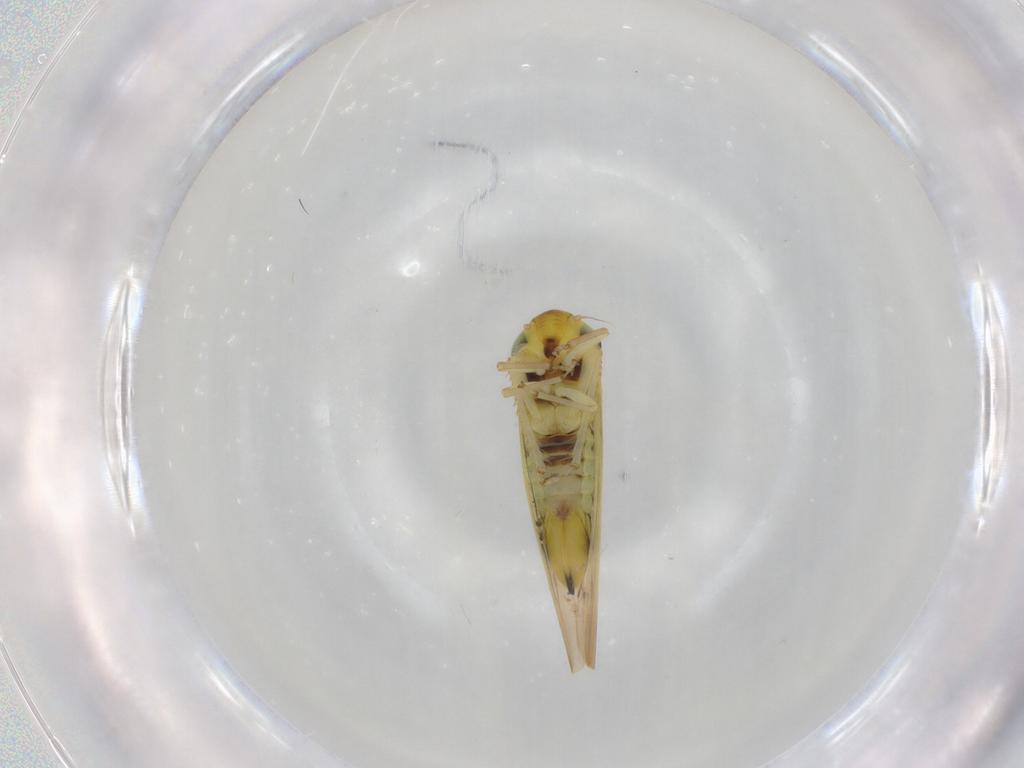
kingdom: Animalia
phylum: Arthropoda
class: Insecta
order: Hemiptera
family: Cicadellidae
